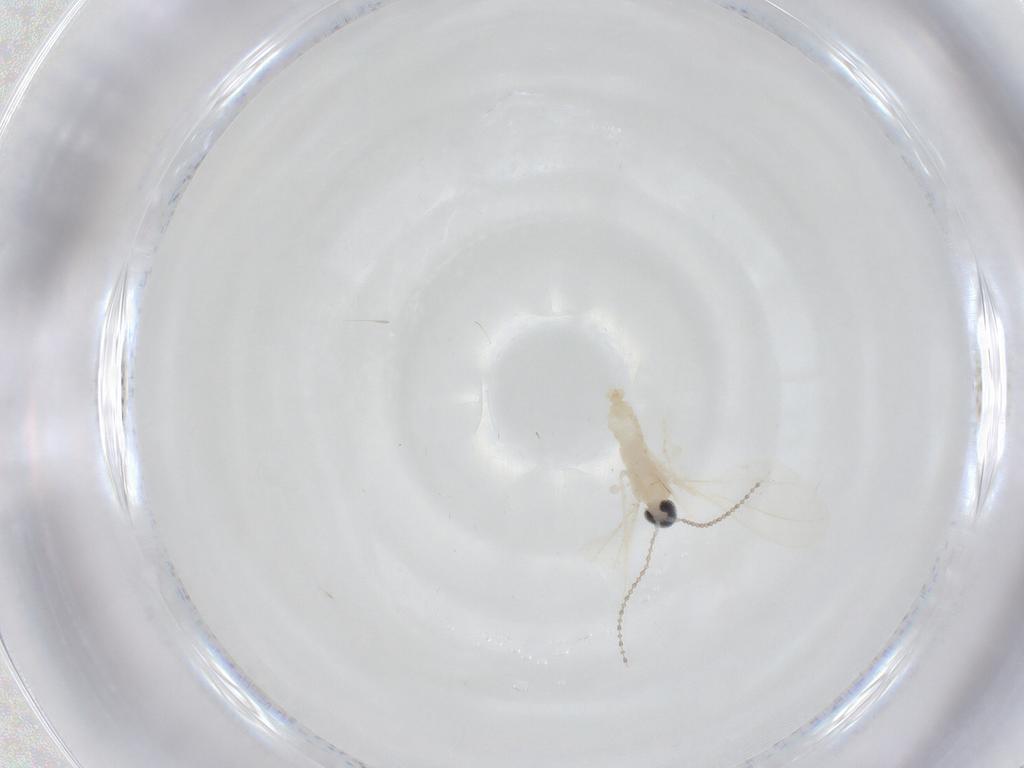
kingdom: Animalia
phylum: Arthropoda
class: Insecta
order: Diptera
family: Cecidomyiidae
